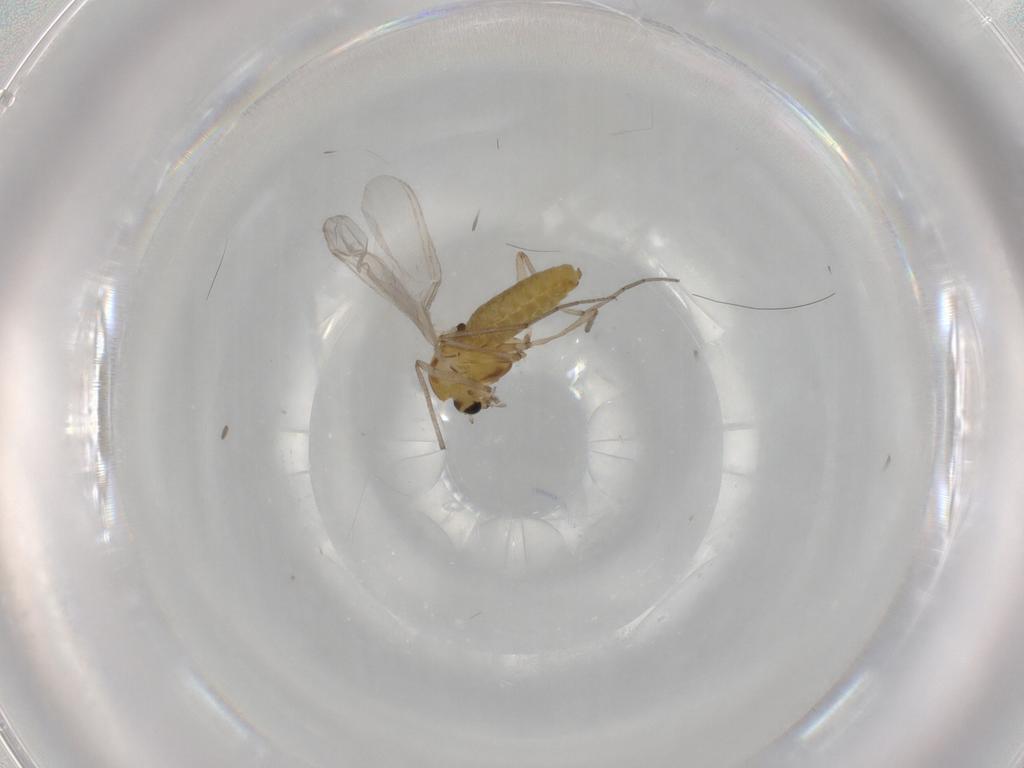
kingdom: Animalia
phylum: Arthropoda
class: Insecta
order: Diptera
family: Chironomidae
